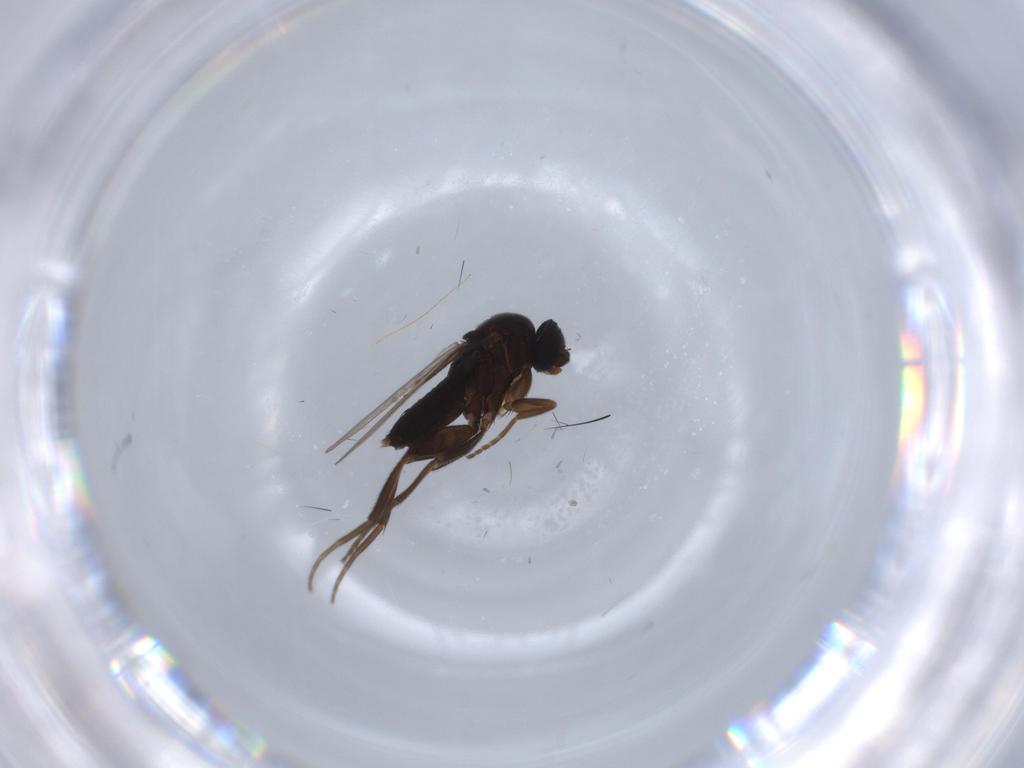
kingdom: Animalia
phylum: Arthropoda
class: Insecta
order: Diptera
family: Phoridae
